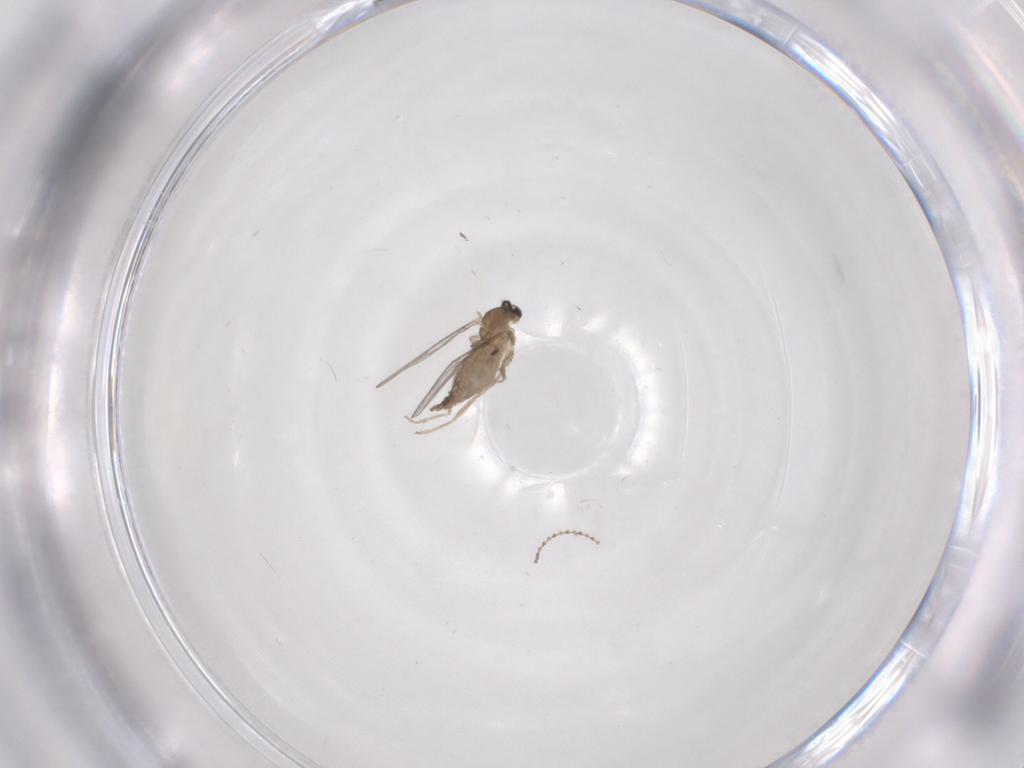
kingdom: Animalia
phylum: Arthropoda
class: Insecta
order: Diptera
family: Cecidomyiidae
